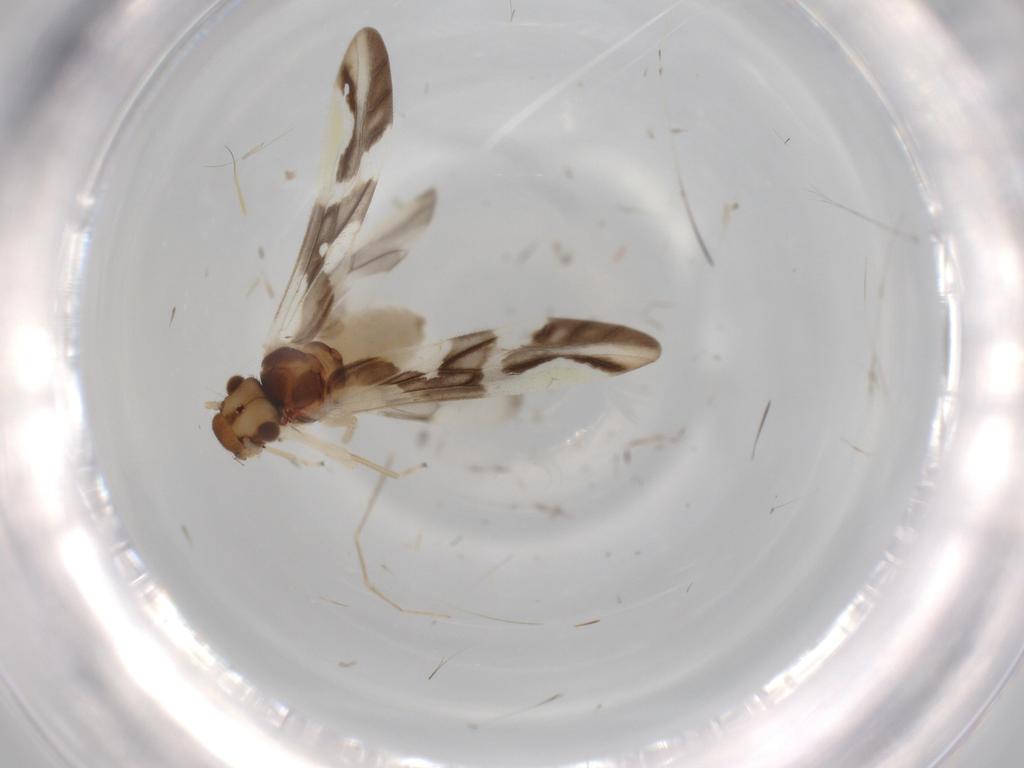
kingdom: Animalia
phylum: Arthropoda
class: Insecta
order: Psocodea
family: Caeciliusidae
